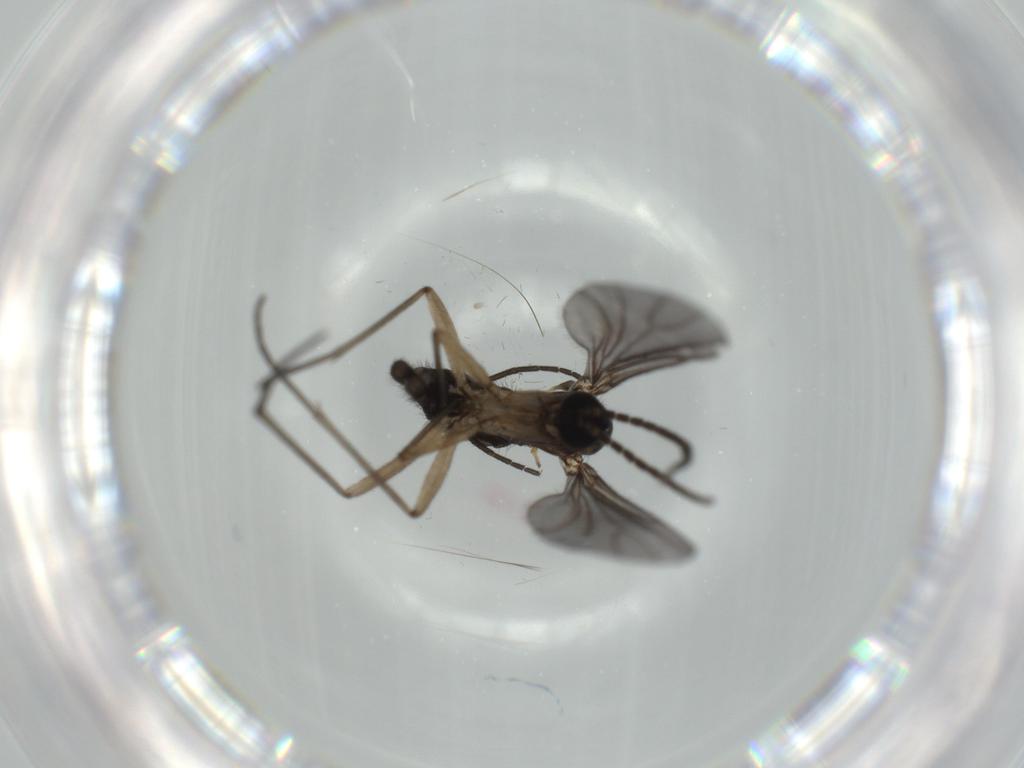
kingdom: Animalia
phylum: Arthropoda
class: Insecta
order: Diptera
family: Sciaridae
